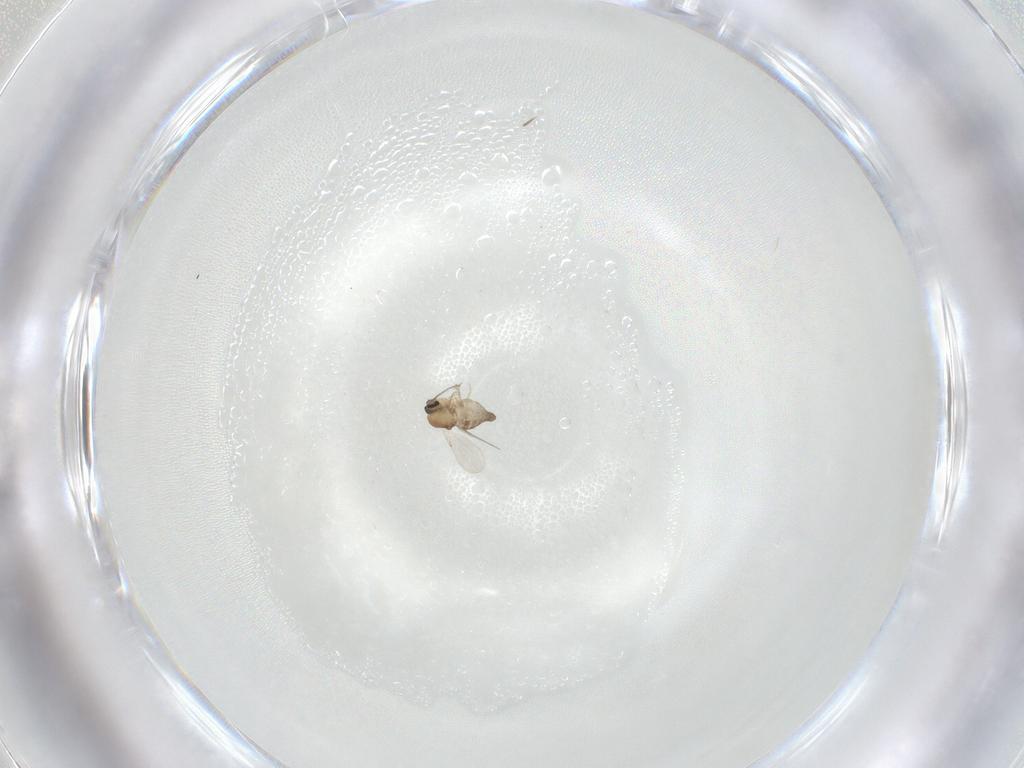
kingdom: Animalia
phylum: Arthropoda
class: Insecta
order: Diptera
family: Ceratopogonidae
